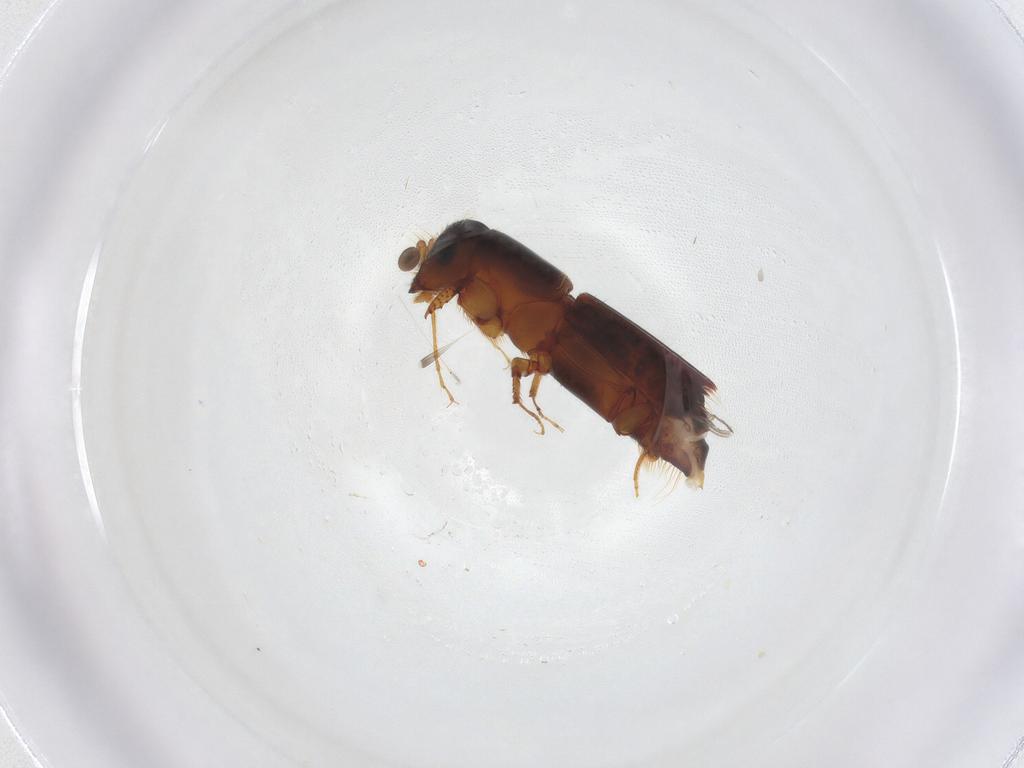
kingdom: Animalia
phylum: Arthropoda
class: Insecta
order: Coleoptera
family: Curculionidae
